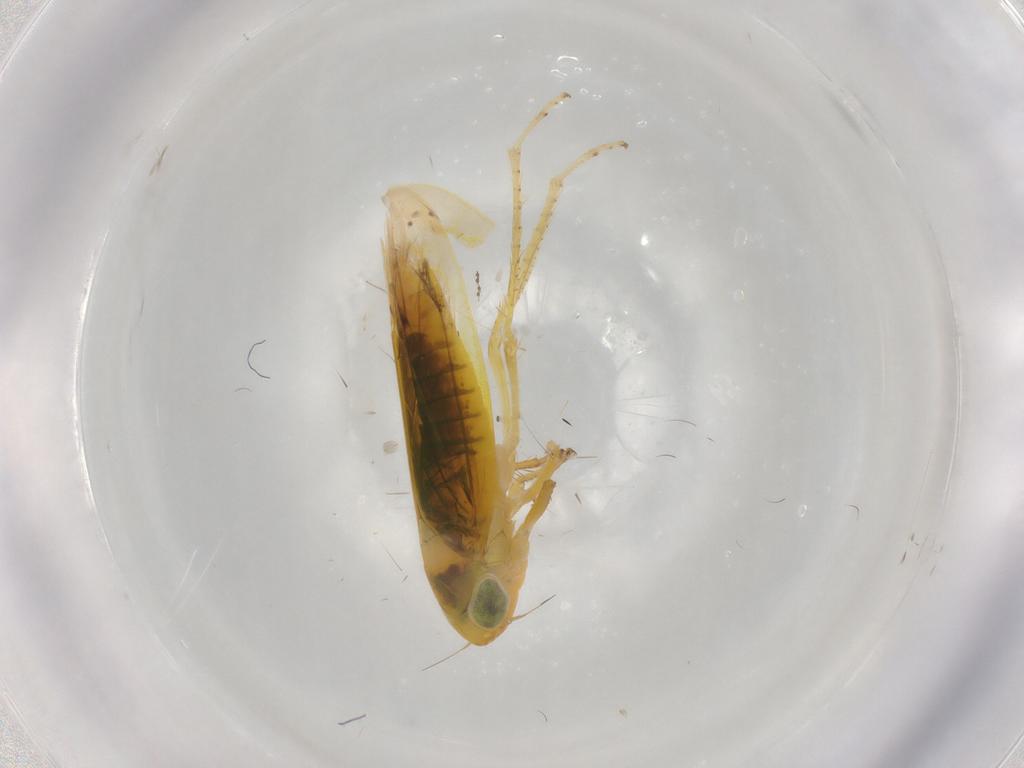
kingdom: Animalia
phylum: Arthropoda
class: Insecta
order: Hemiptera
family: Cicadellidae
